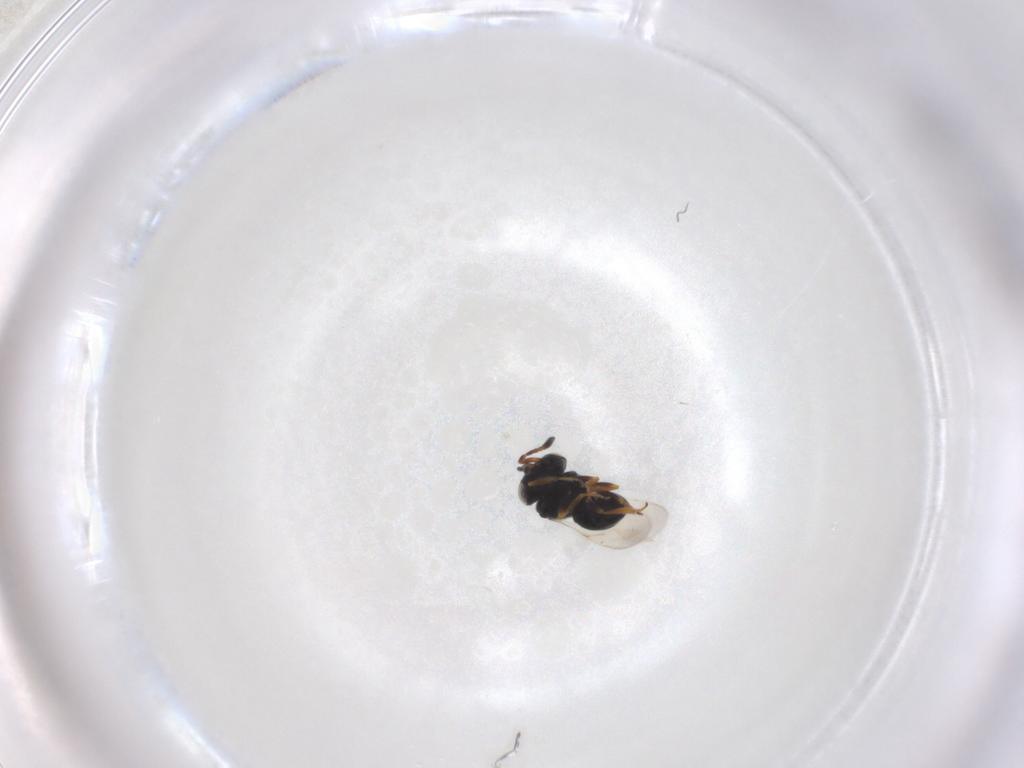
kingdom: Animalia
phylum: Arthropoda
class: Insecta
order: Hymenoptera
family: Scelionidae
